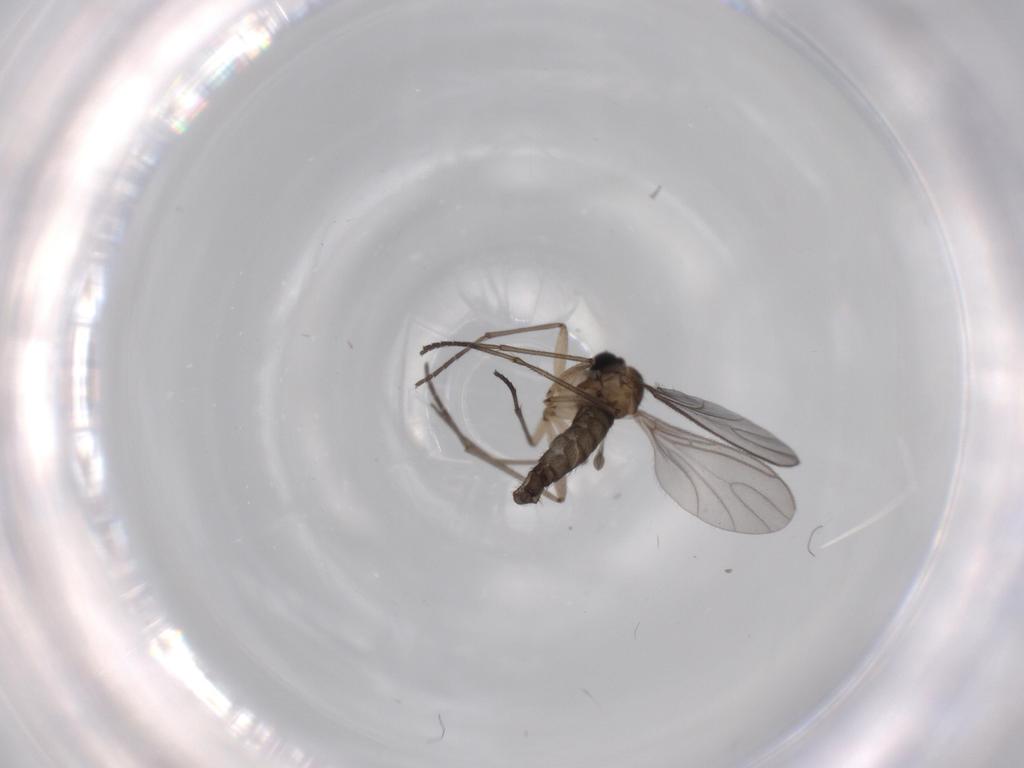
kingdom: Animalia
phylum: Arthropoda
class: Insecta
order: Diptera
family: Sciaridae
